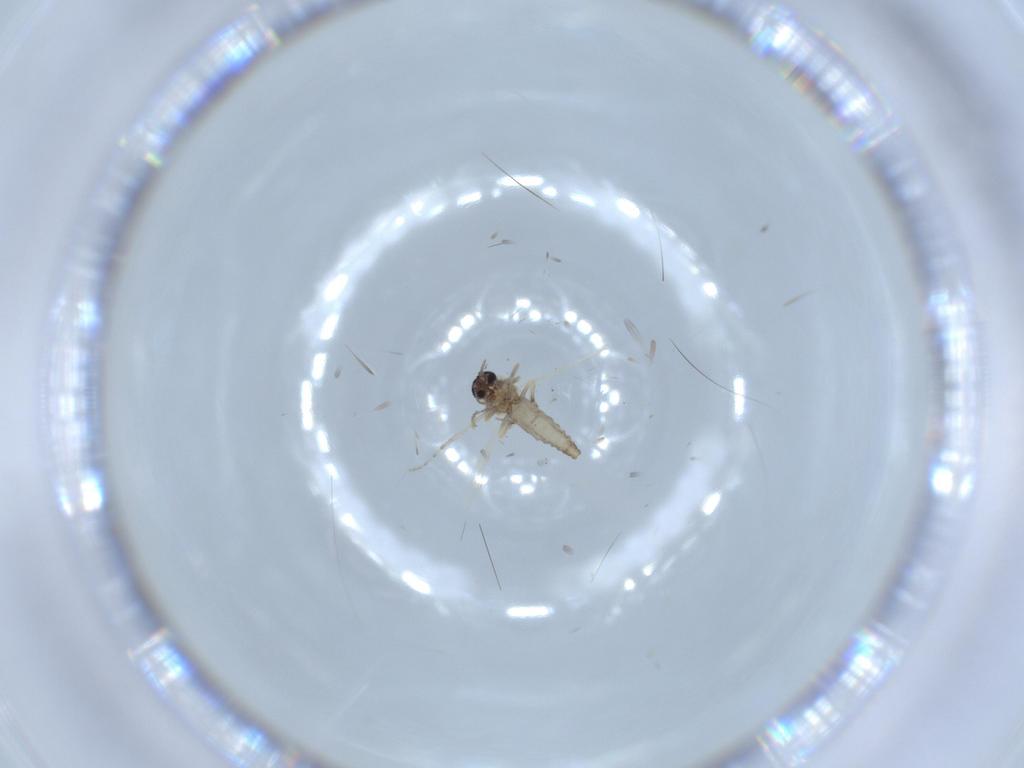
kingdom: Animalia
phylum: Arthropoda
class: Insecta
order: Diptera
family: Ceratopogonidae
